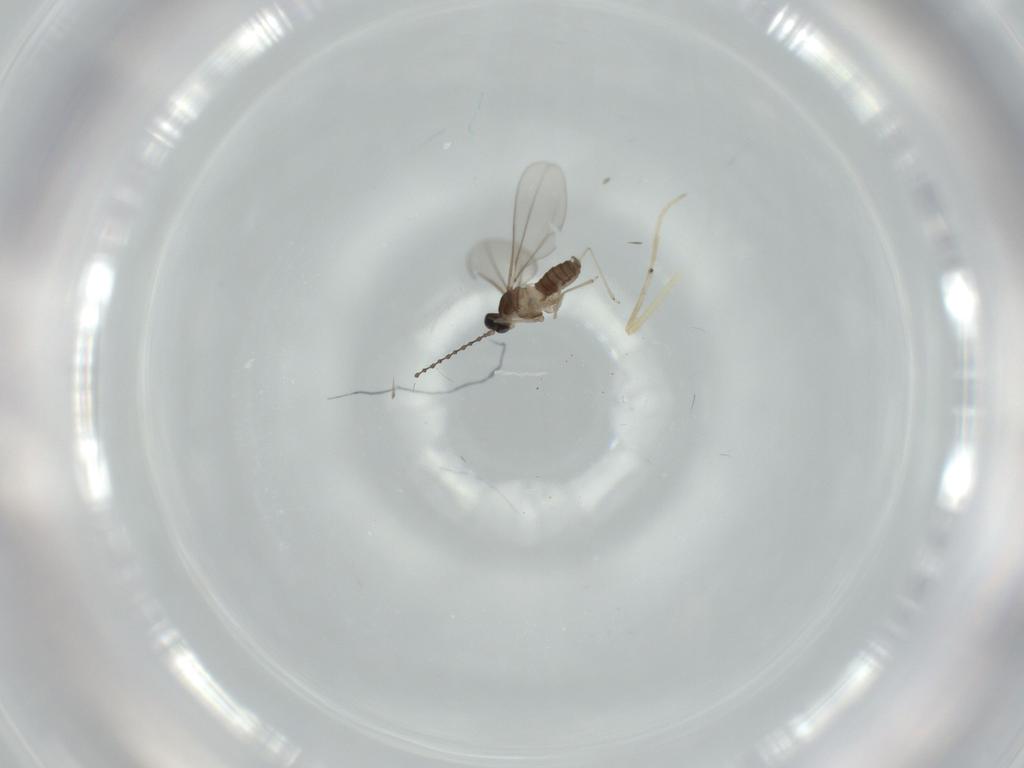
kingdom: Animalia
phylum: Arthropoda
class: Insecta
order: Diptera
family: Cecidomyiidae
